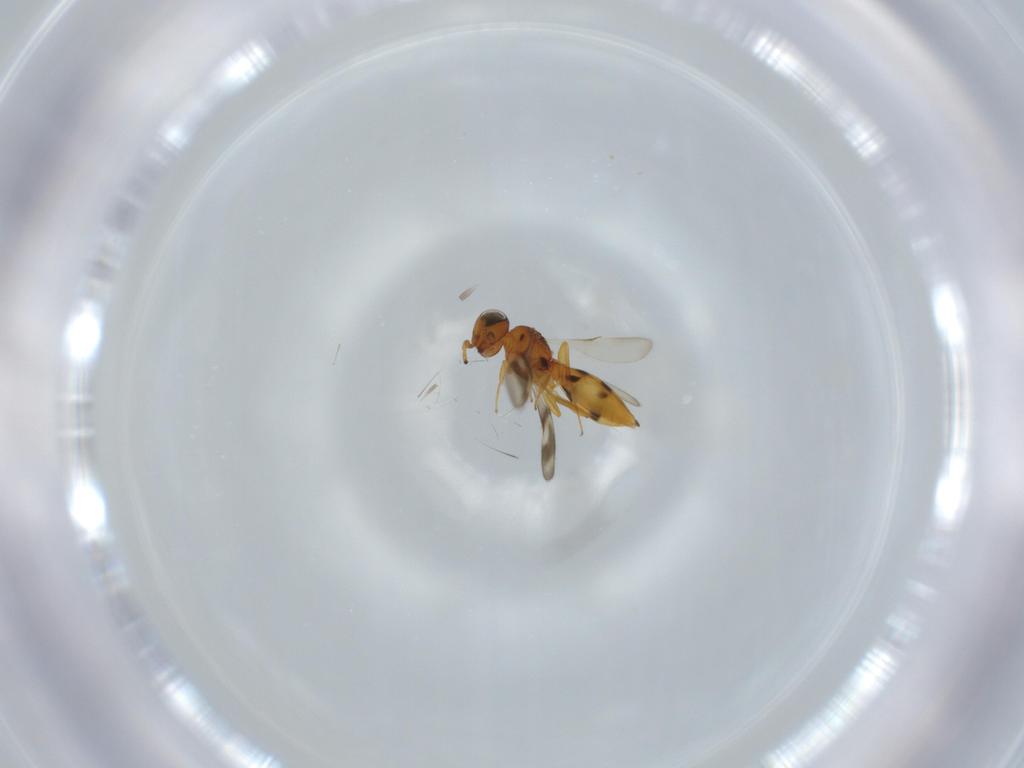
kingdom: Animalia
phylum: Arthropoda
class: Insecta
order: Hymenoptera
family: Scelionidae
